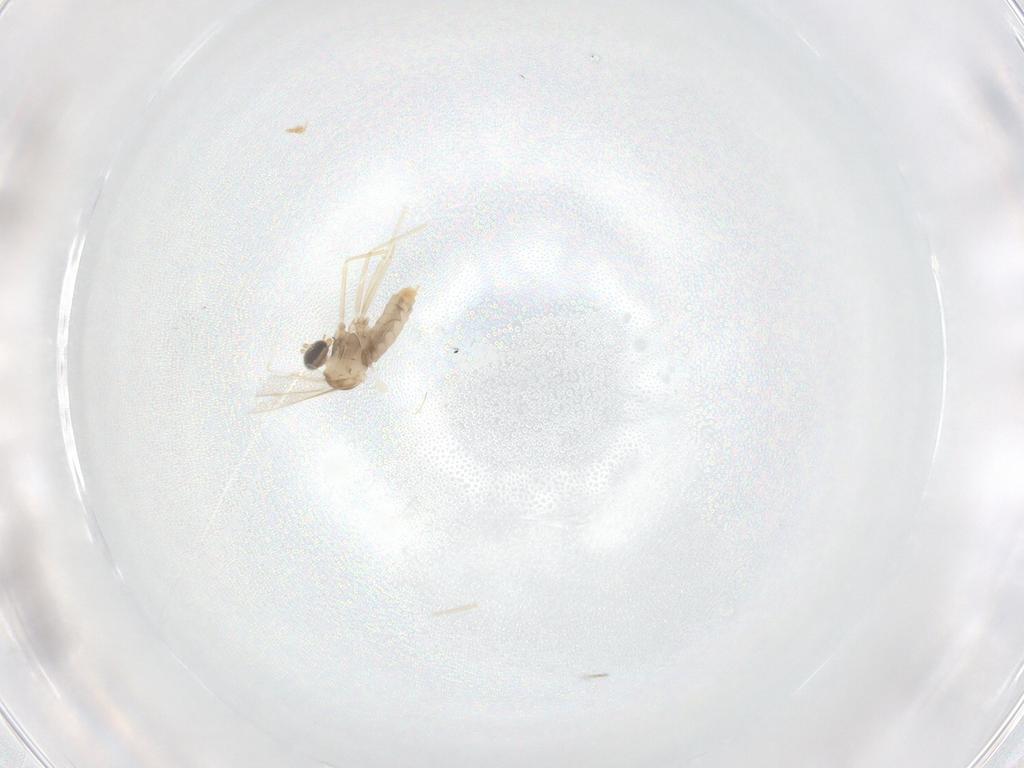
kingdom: Animalia
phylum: Arthropoda
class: Insecta
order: Diptera
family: Cecidomyiidae
